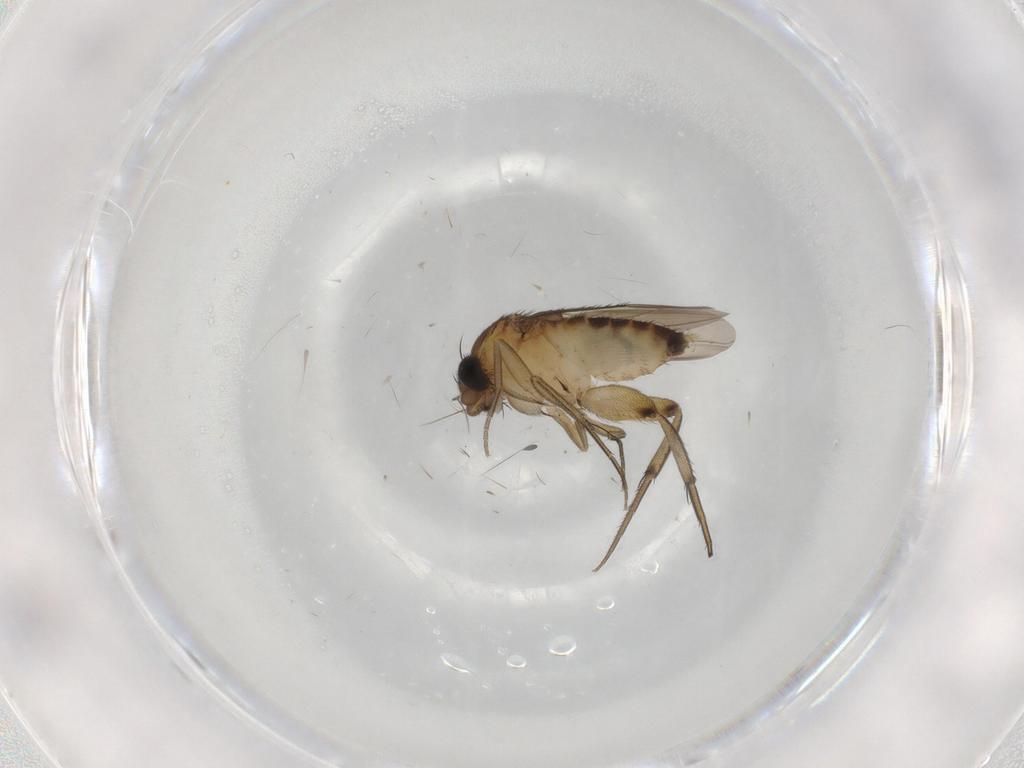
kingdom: Animalia
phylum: Arthropoda
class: Insecta
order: Diptera
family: Phoridae
